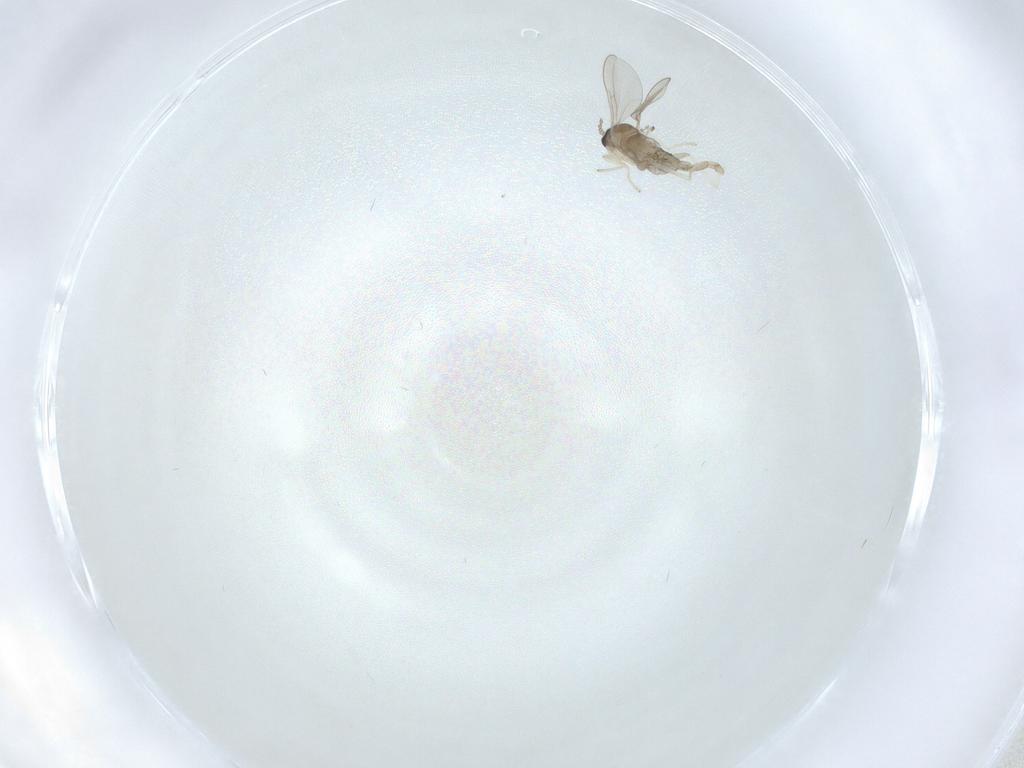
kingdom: Animalia
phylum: Arthropoda
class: Insecta
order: Diptera
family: Cecidomyiidae
